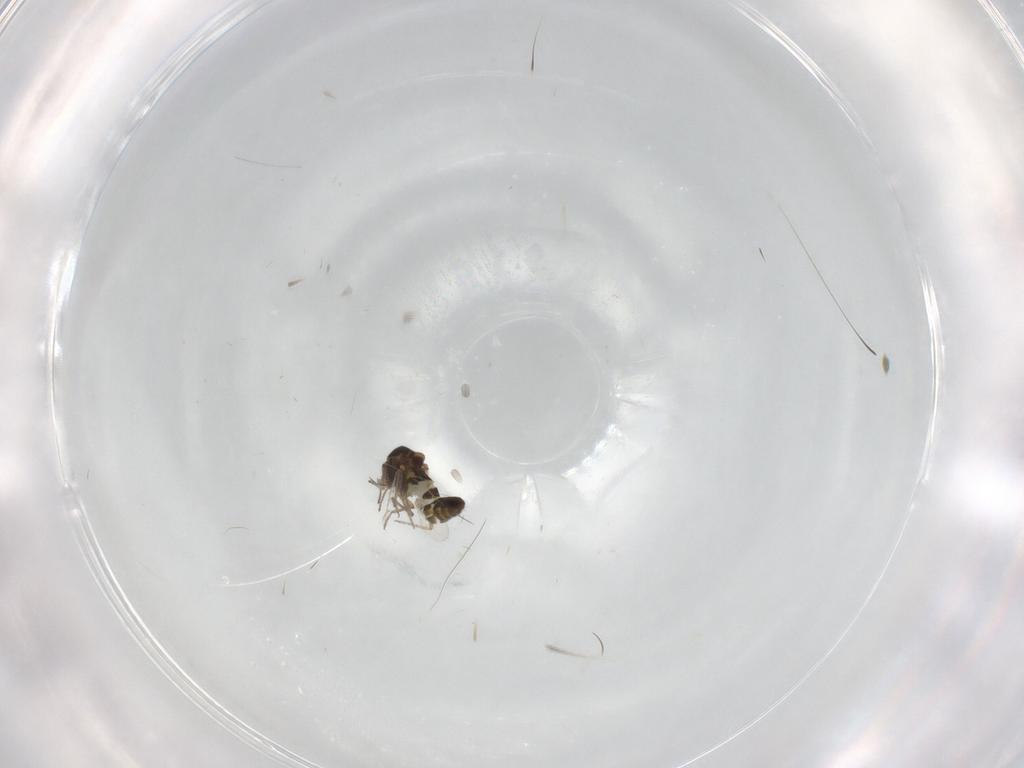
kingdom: Animalia
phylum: Arthropoda
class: Insecta
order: Diptera
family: Ceratopogonidae
